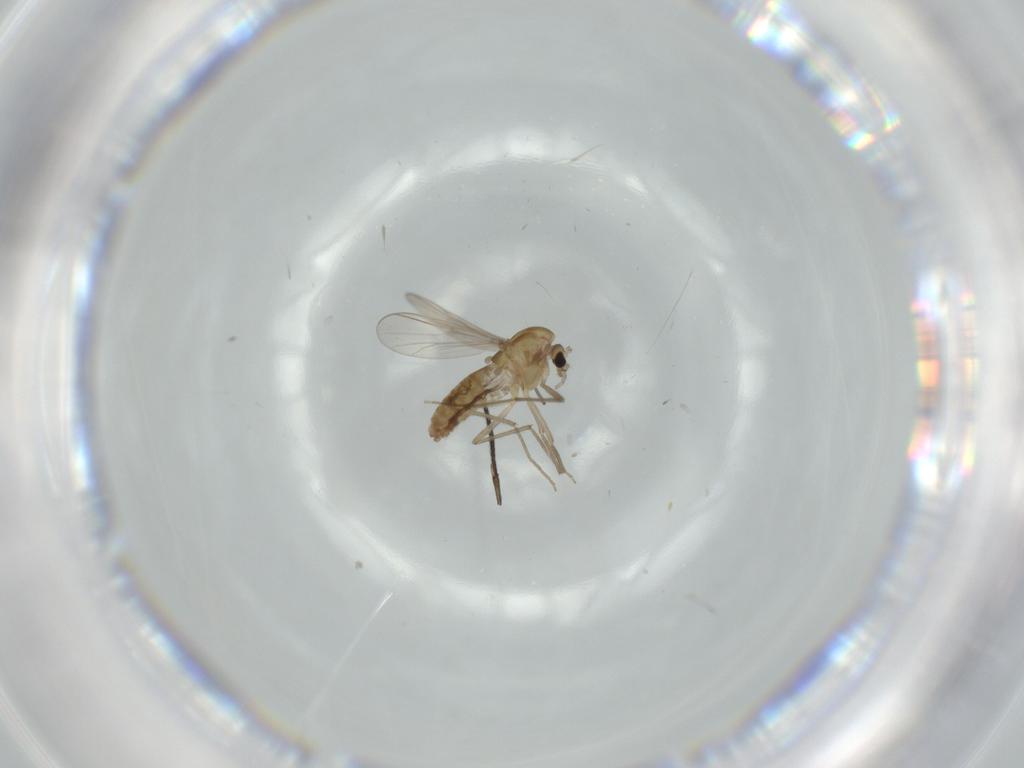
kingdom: Animalia
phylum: Arthropoda
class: Insecta
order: Diptera
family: Chironomidae
